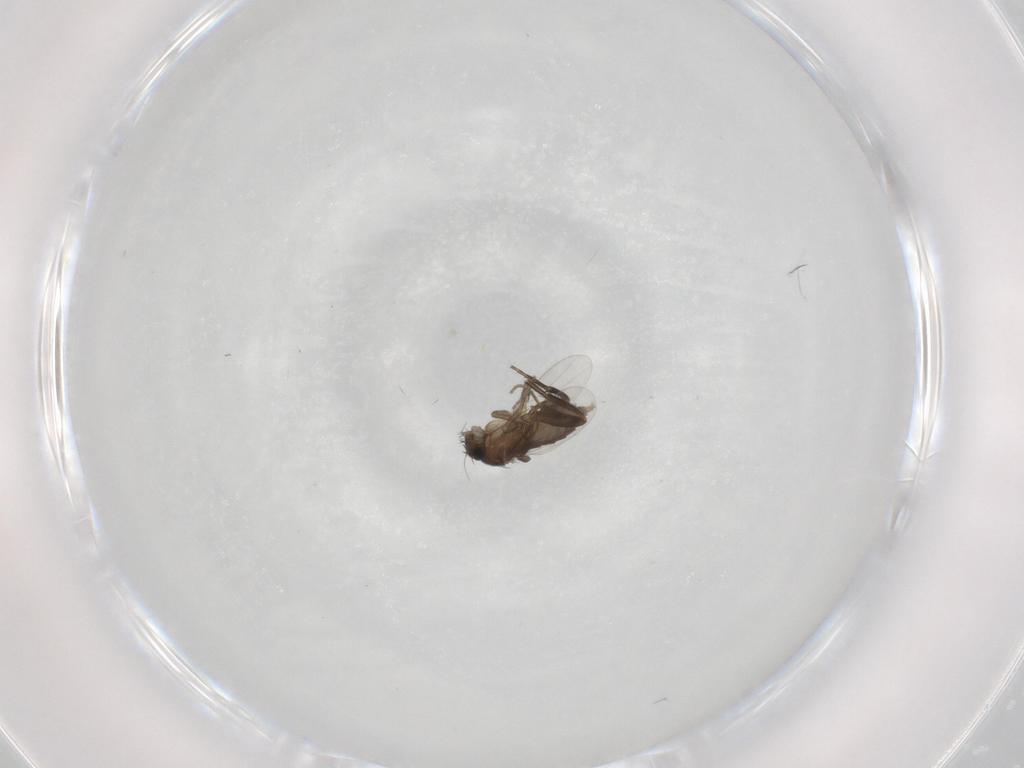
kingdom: Animalia
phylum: Arthropoda
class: Insecta
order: Diptera
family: Phoridae
